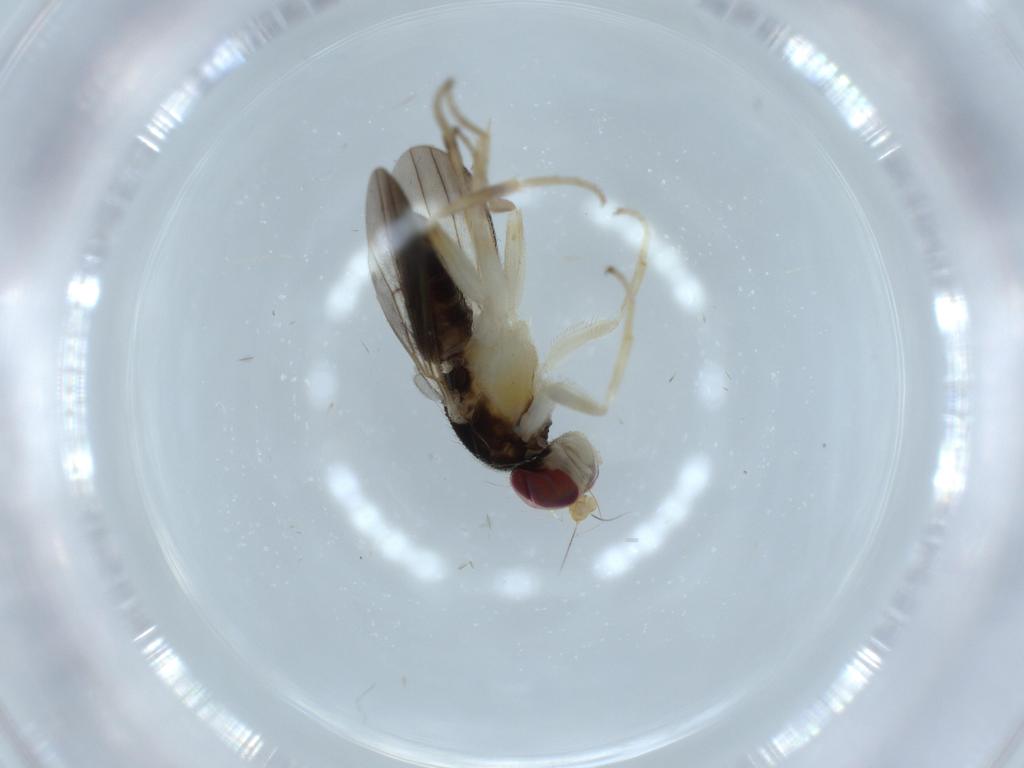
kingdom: Animalia
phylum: Arthropoda
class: Insecta
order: Diptera
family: Clusiidae
